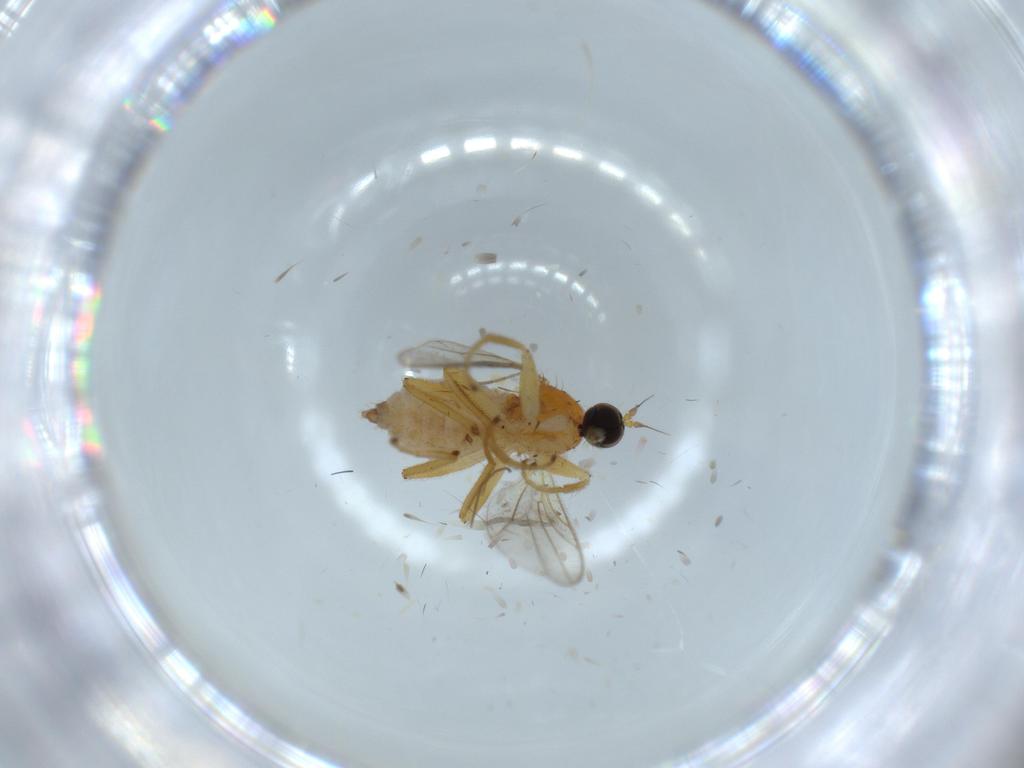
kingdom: Animalia
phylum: Arthropoda
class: Insecta
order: Diptera
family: Hybotidae
